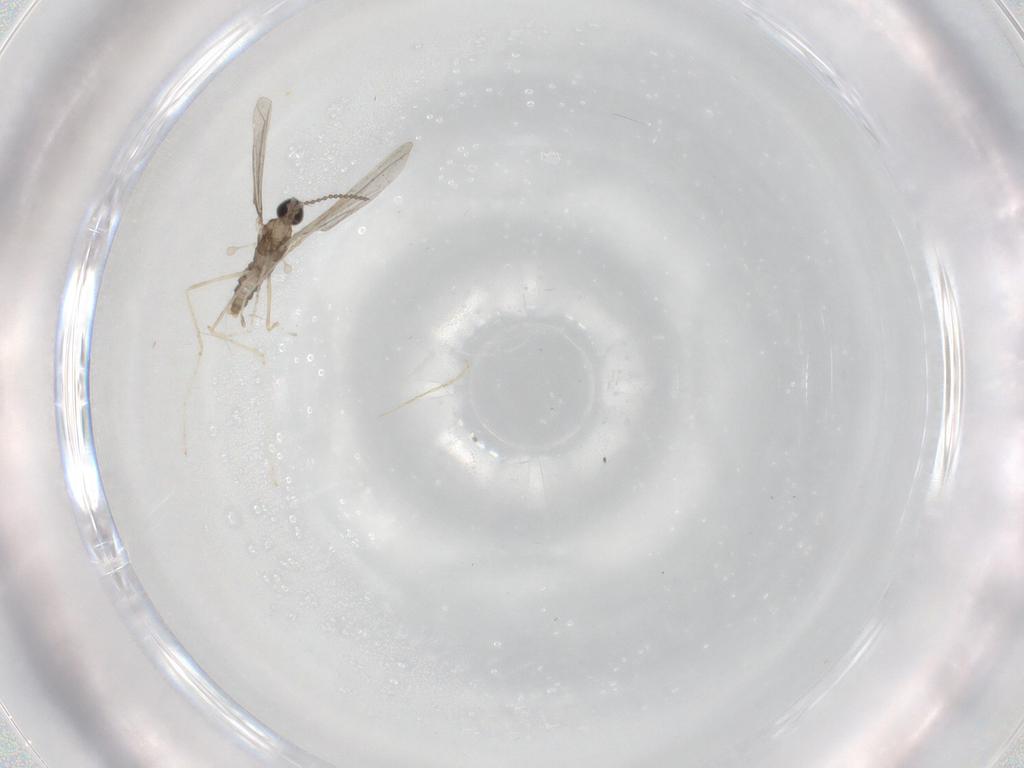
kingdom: Animalia
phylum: Arthropoda
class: Insecta
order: Diptera
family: Cecidomyiidae
